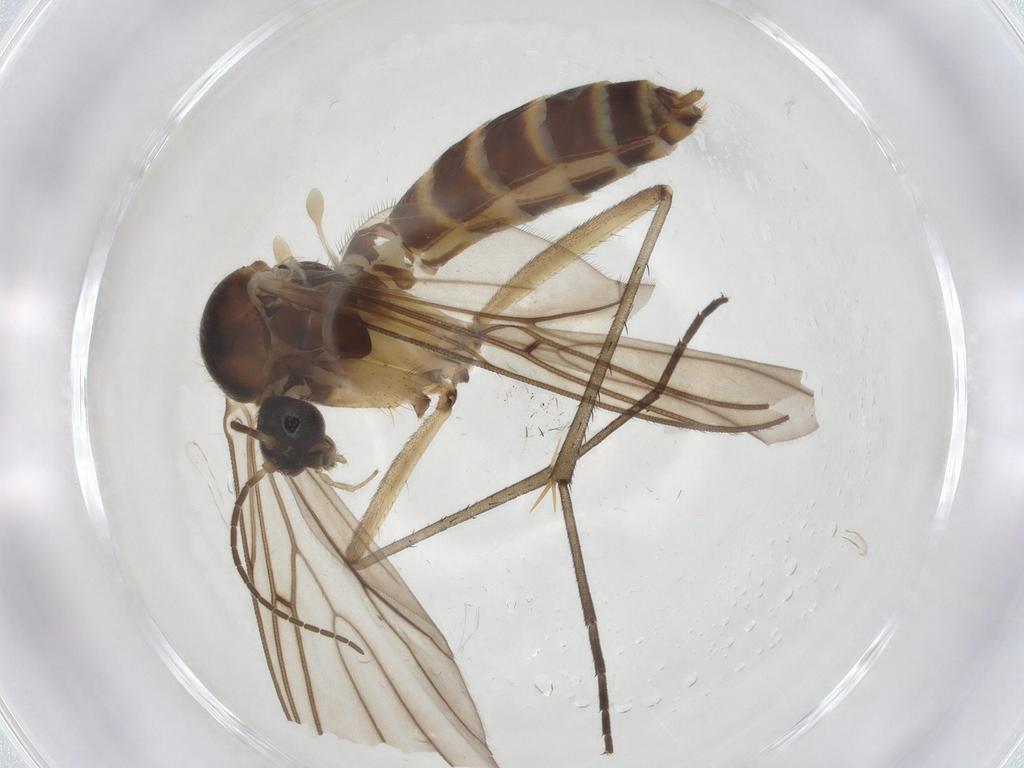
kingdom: Animalia
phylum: Arthropoda
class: Insecta
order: Diptera
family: Mycetophilidae
